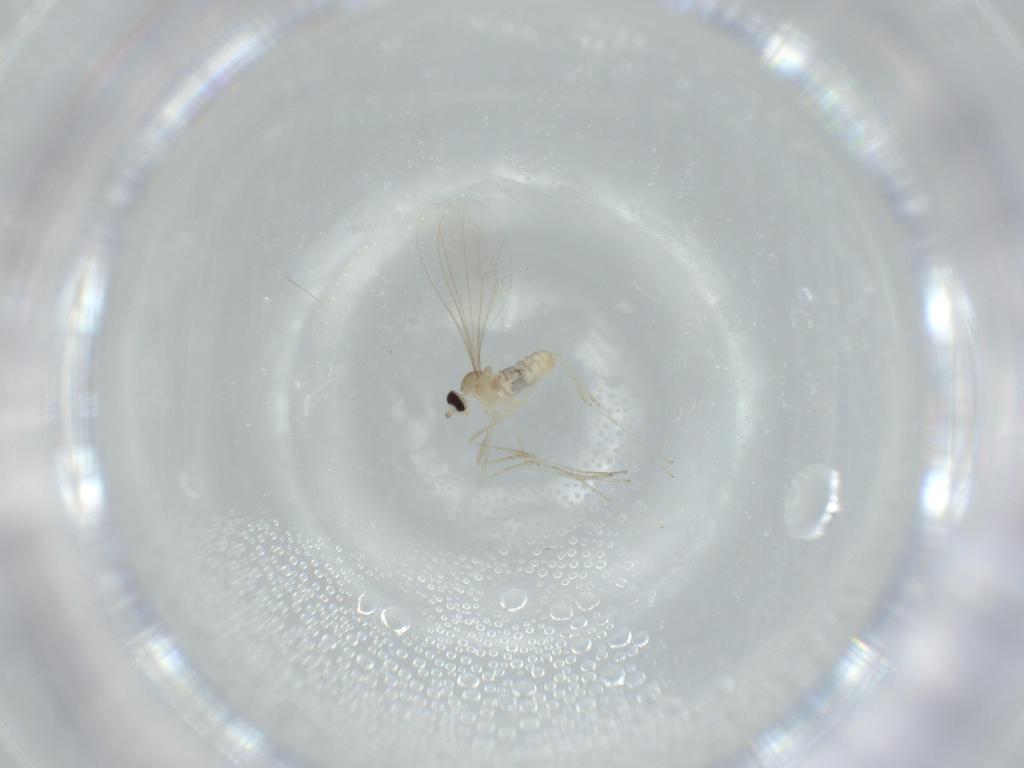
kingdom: Animalia
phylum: Arthropoda
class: Insecta
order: Diptera
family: Cecidomyiidae
